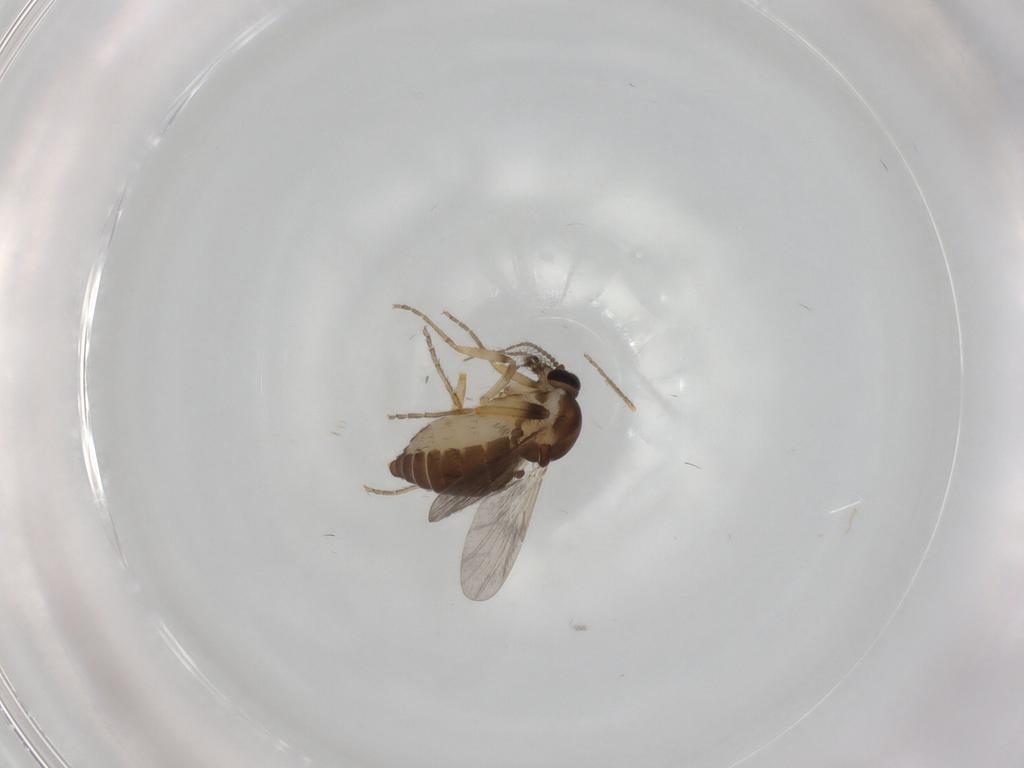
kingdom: Animalia
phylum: Arthropoda
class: Insecta
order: Diptera
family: Ceratopogonidae
